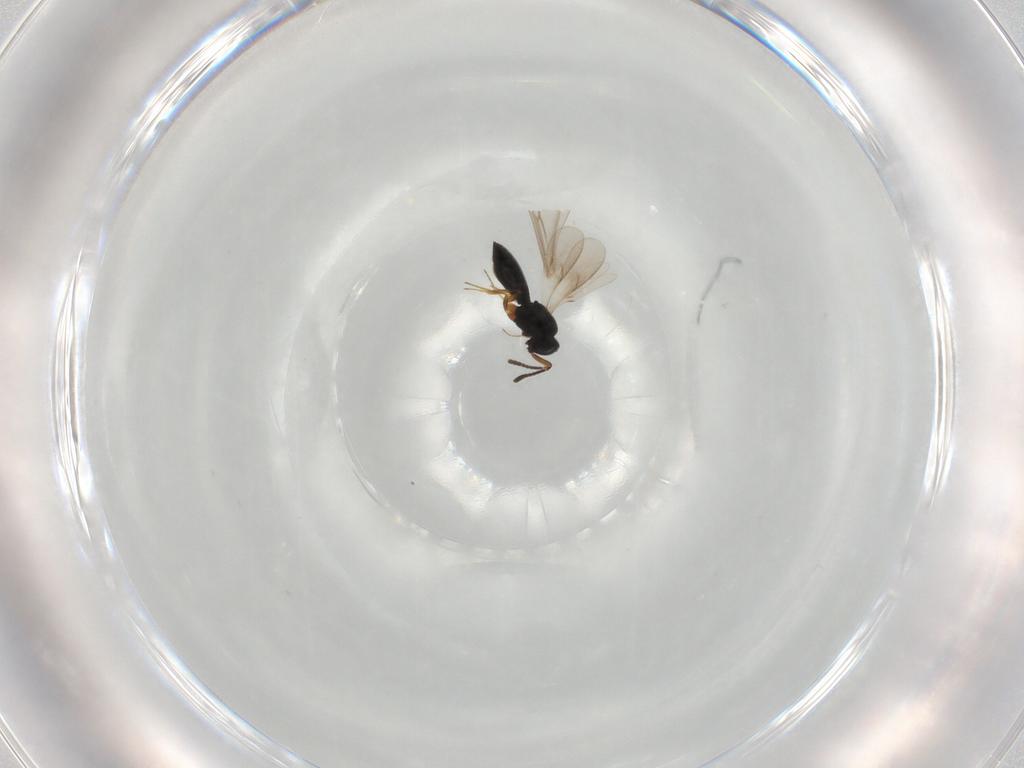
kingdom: Animalia
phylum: Arthropoda
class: Insecta
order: Hymenoptera
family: Scelionidae
